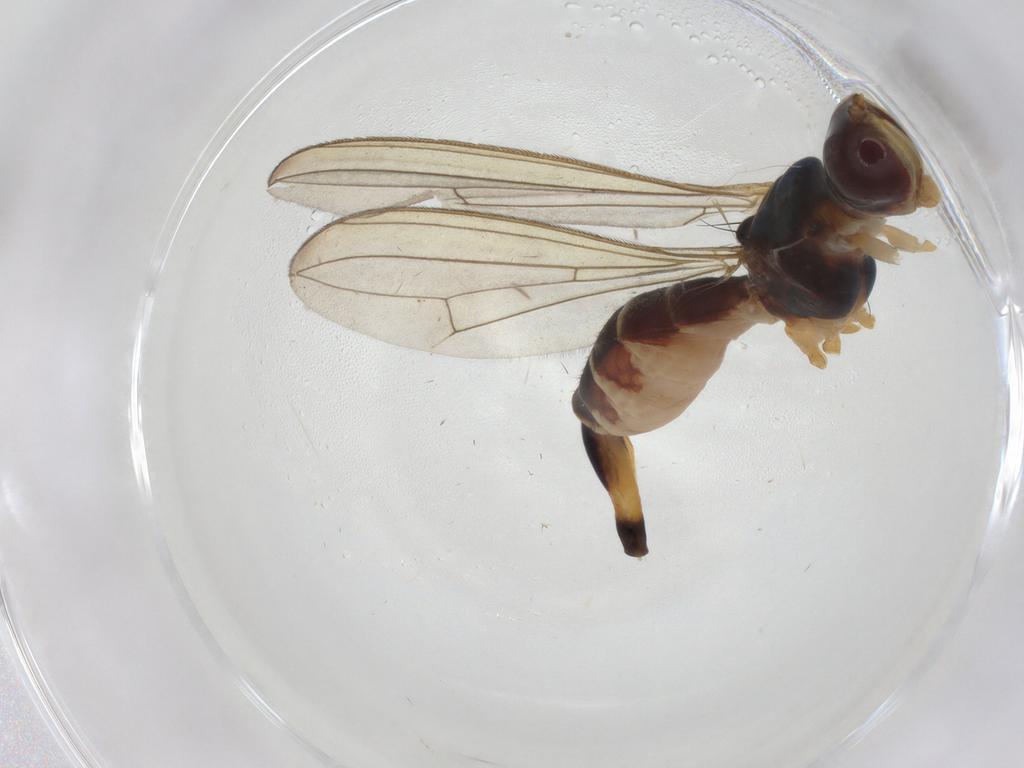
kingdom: Animalia
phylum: Arthropoda
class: Insecta
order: Diptera
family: Micropezidae
